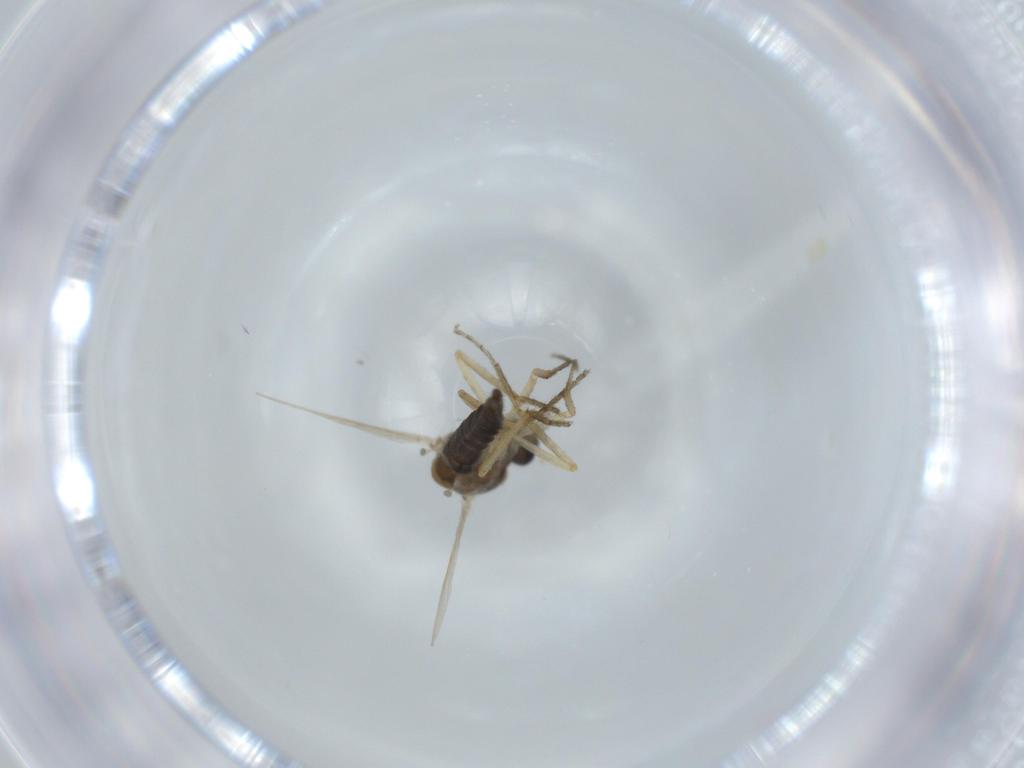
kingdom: Animalia
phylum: Arthropoda
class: Insecta
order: Diptera
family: Ceratopogonidae
